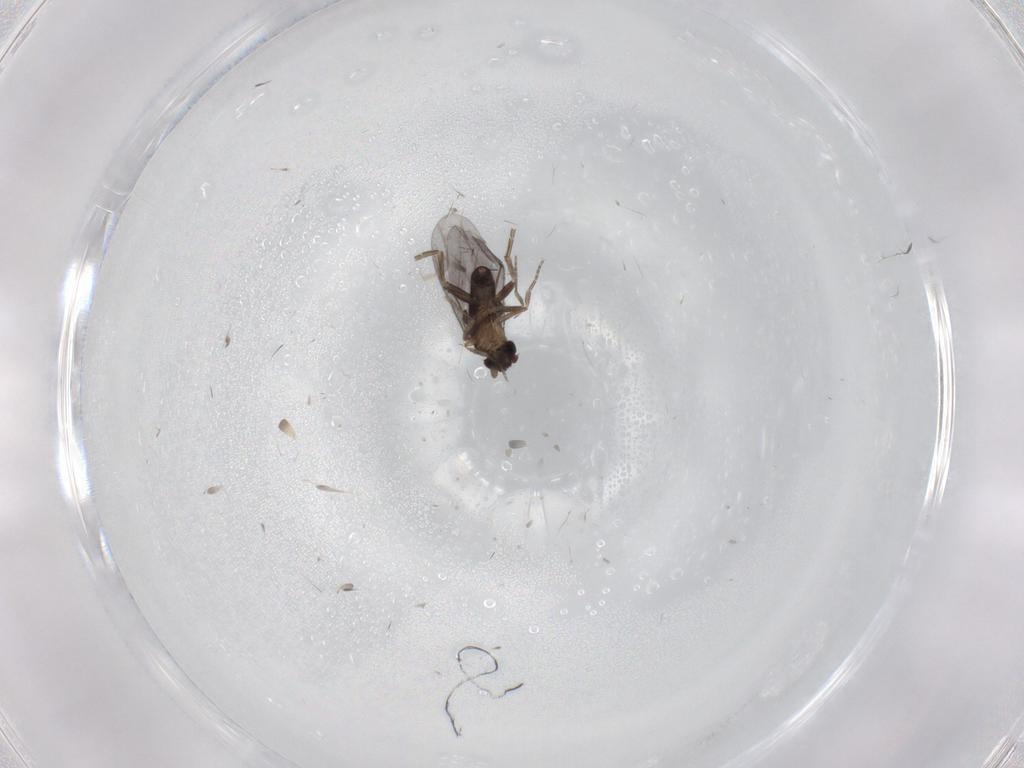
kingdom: Animalia
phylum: Arthropoda
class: Insecta
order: Diptera
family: Cecidomyiidae
